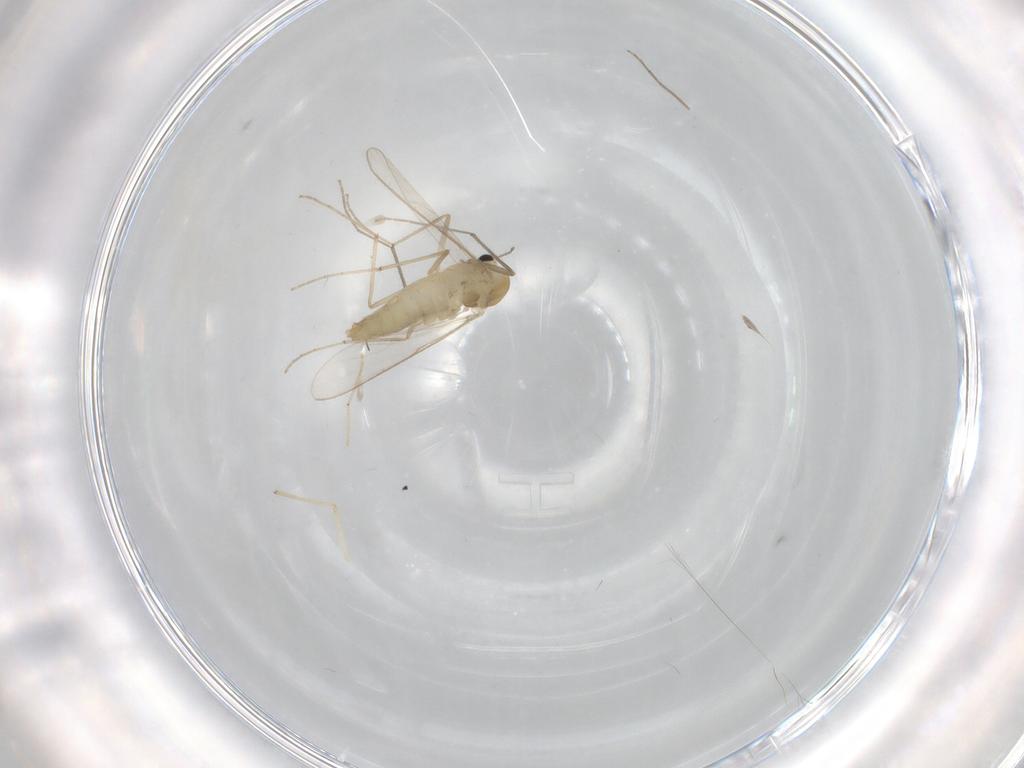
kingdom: Animalia
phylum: Arthropoda
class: Insecta
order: Diptera
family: Chironomidae
